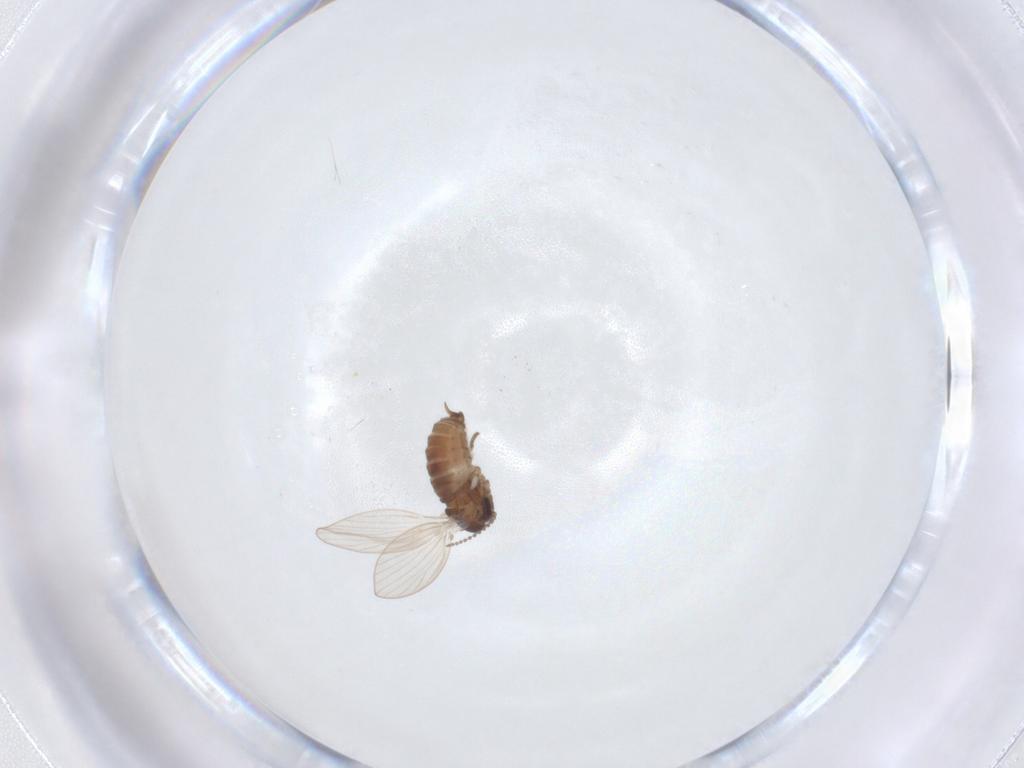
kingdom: Animalia
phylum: Arthropoda
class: Insecta
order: Diptera
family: Psychodidae
